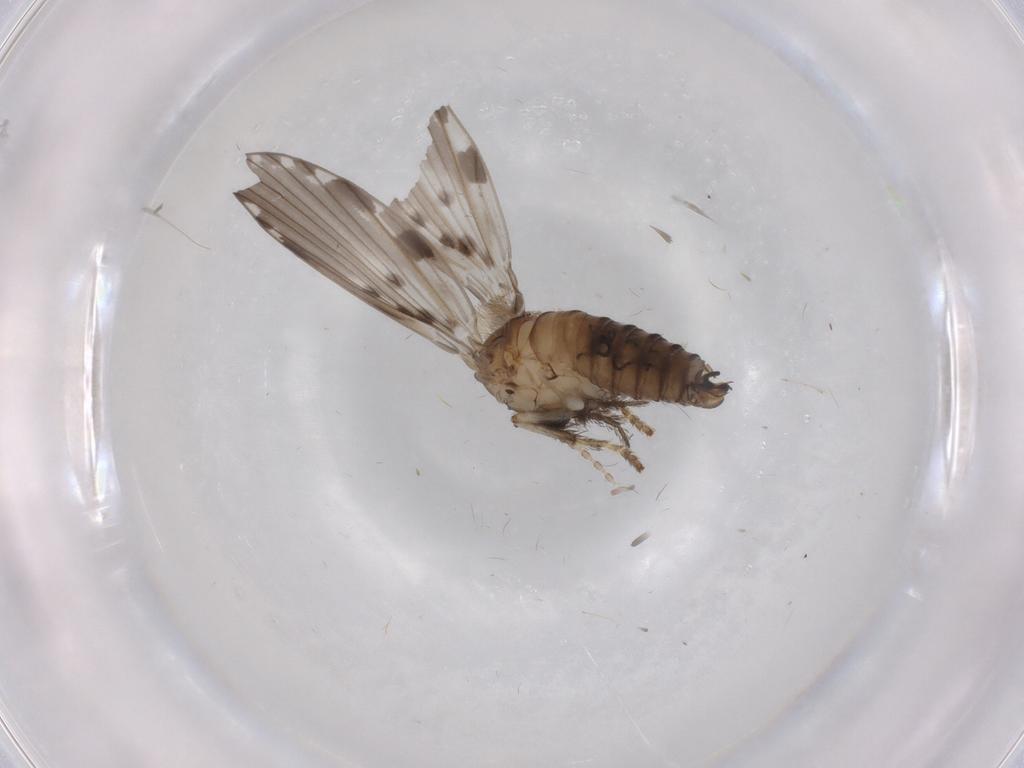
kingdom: Animalia
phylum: Arthropoda
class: Insecta
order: Diptera
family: Psychodidae
